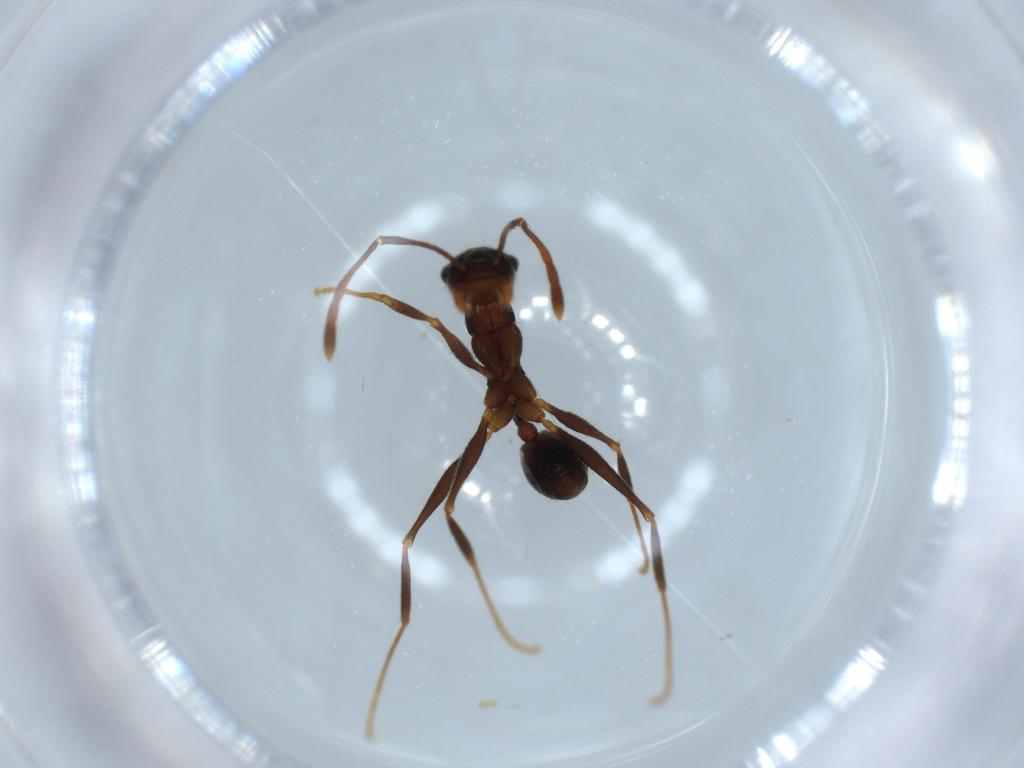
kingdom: Animalia
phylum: Arthropoda
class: Insecta
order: Hymenoptera
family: Formicidae
